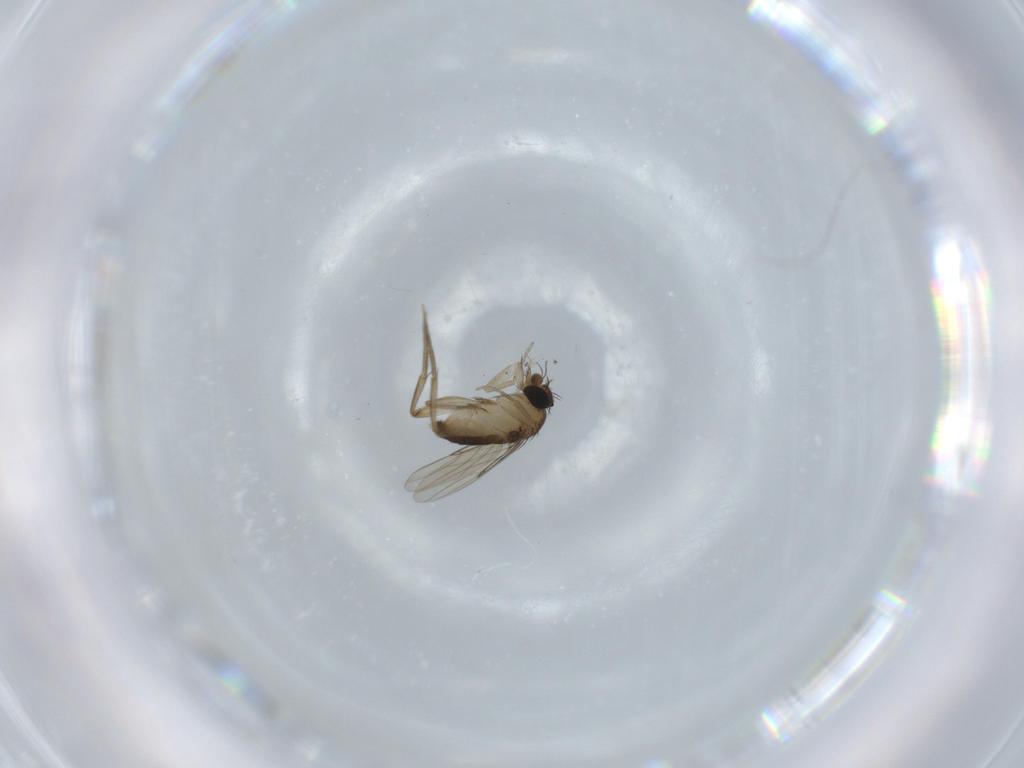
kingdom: Animalia
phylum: Arthropoda
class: Insecta
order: Diptera
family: Phoridae
